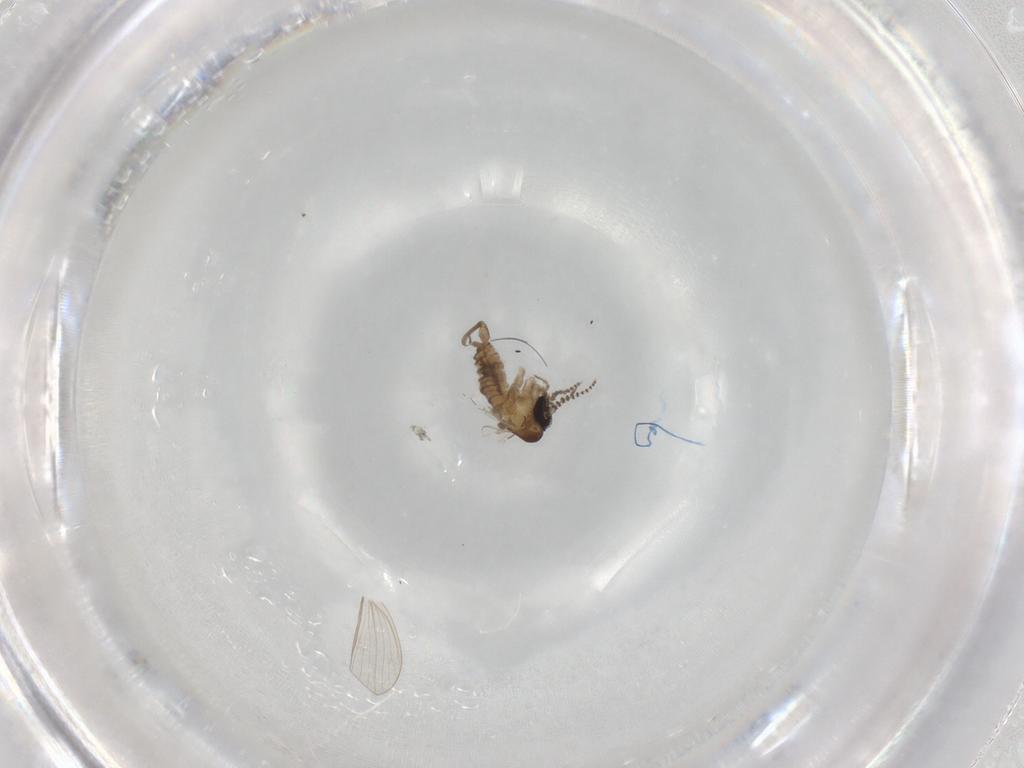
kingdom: Animalia
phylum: Arthropoda
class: Insecta
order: Diptera
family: Psychodidae
